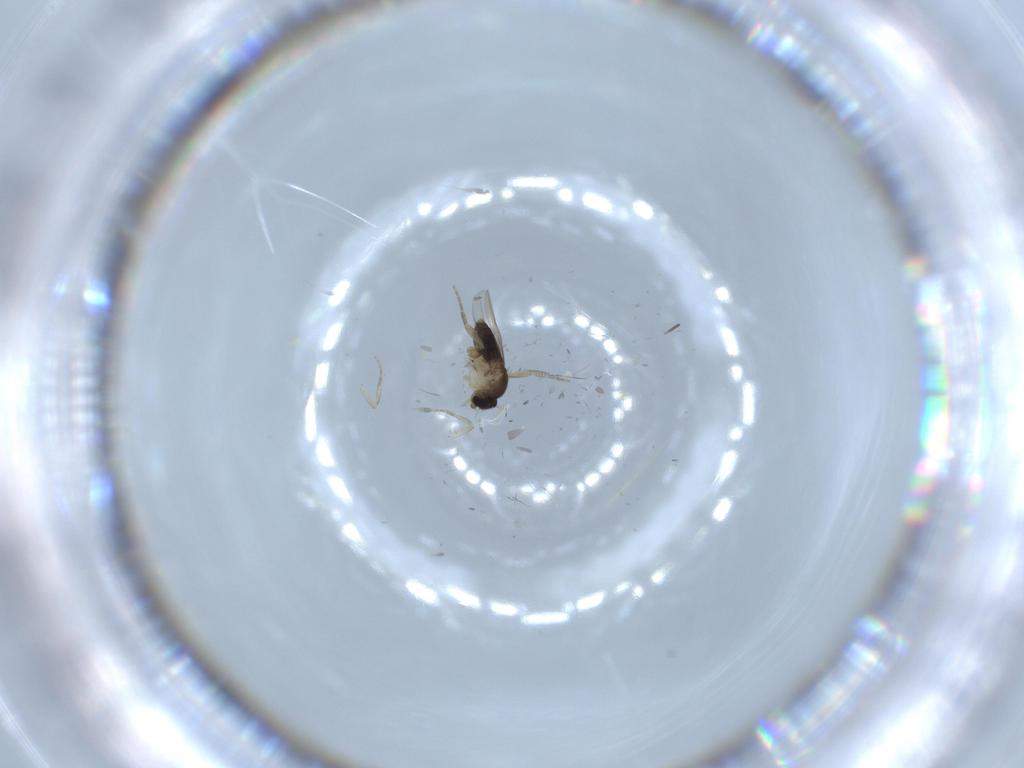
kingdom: Animalia
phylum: Arthropoda
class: Insecta
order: Diptera
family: Phoridae
